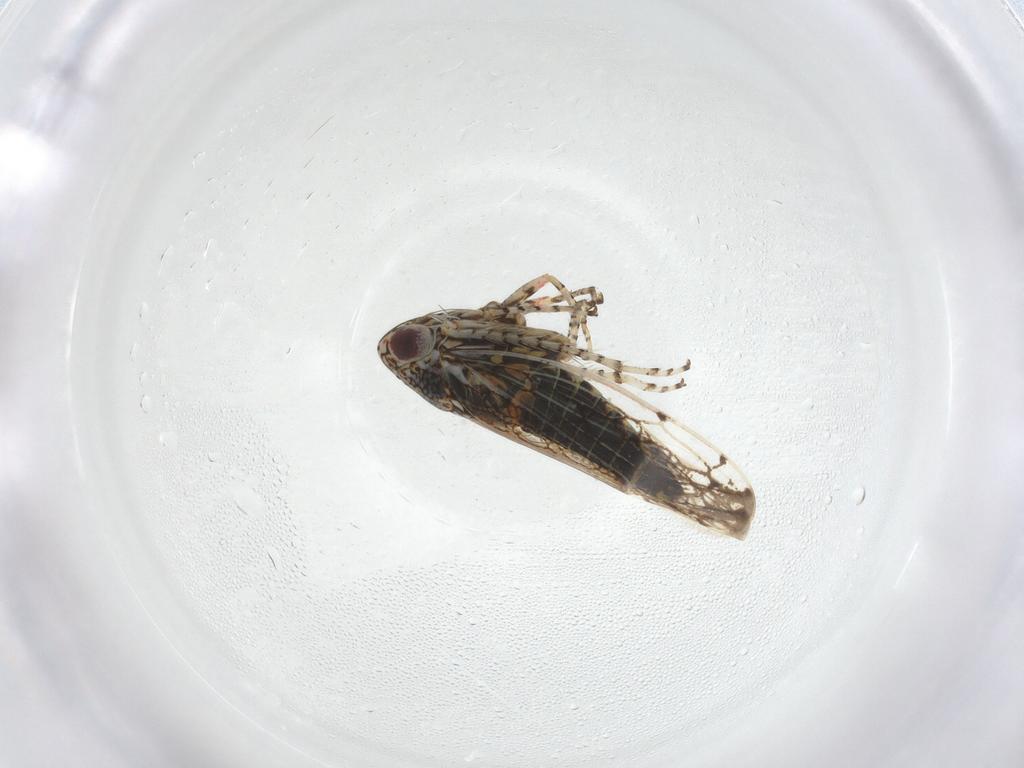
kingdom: Animalia
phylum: Arthropoda
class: Insecta
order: Hemiptera
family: Cicadellidae
